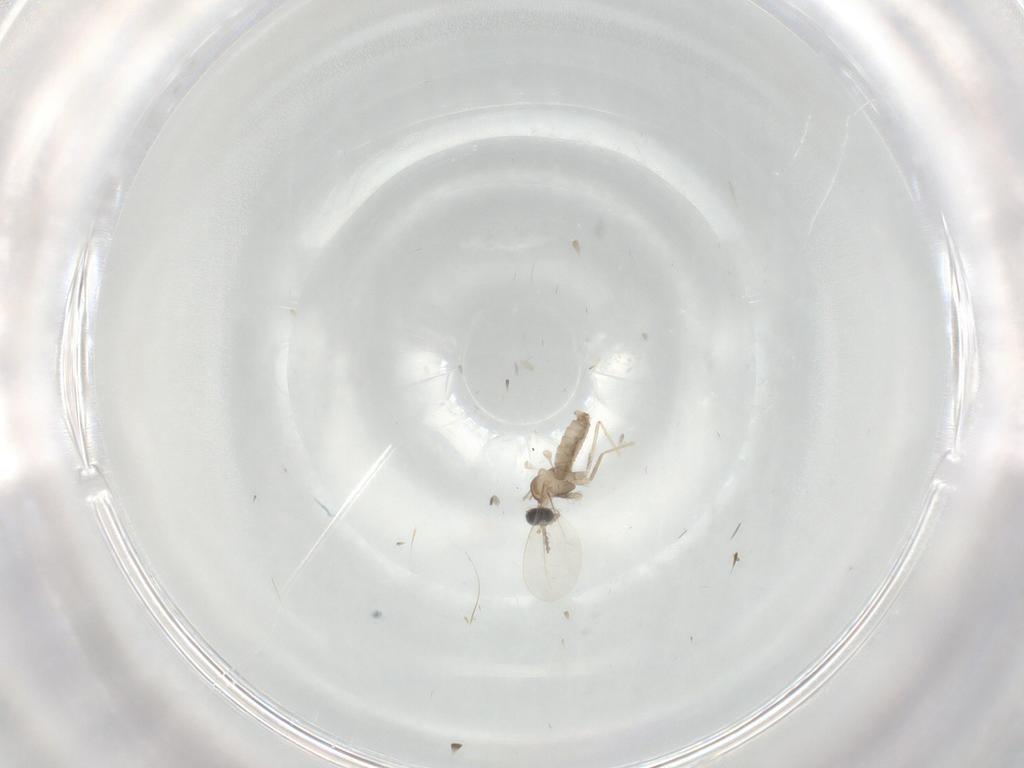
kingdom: Animalia
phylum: Arthropoda
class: Insecta
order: Diptera
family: Cecidomyiidae
